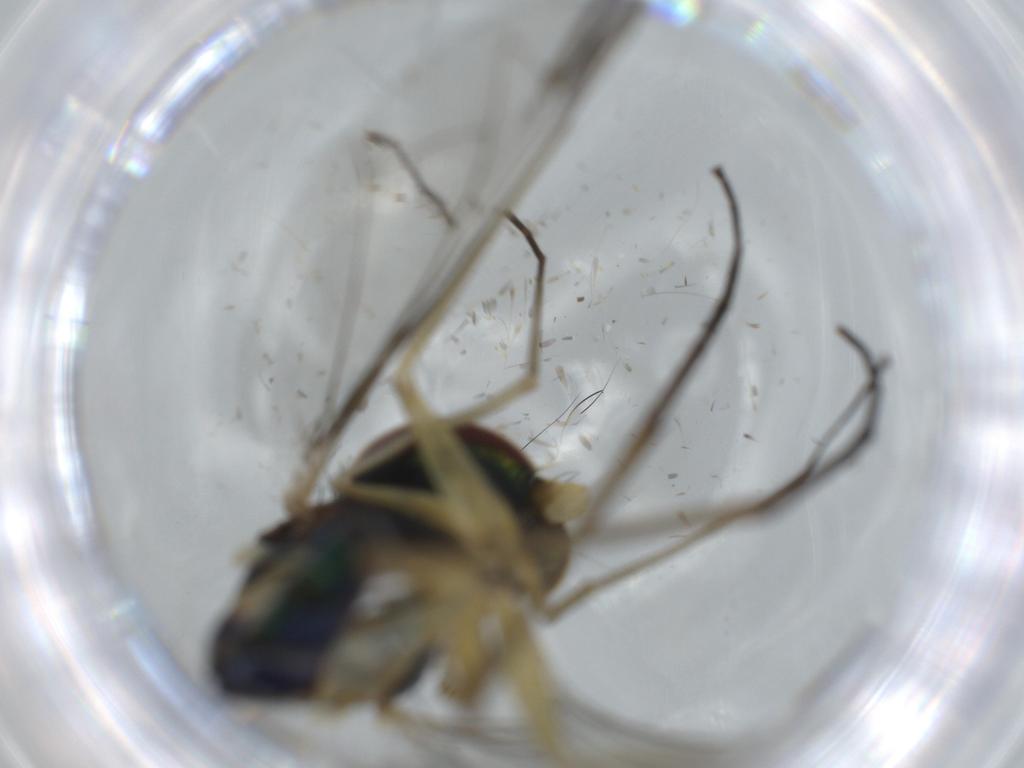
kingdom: Animalia
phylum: Arthropoda
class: Insecta
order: Diptera
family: Dolichopodidae
